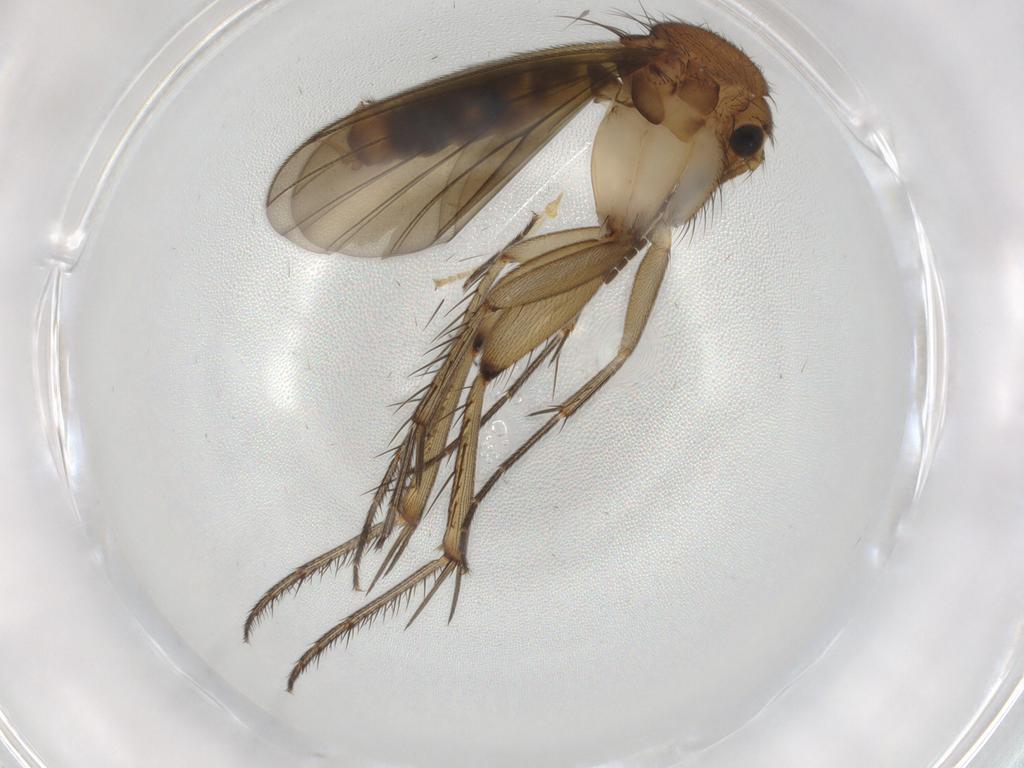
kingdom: Animalia
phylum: Arthropoda
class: Insecta
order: Diptera
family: Mycetophilidae
